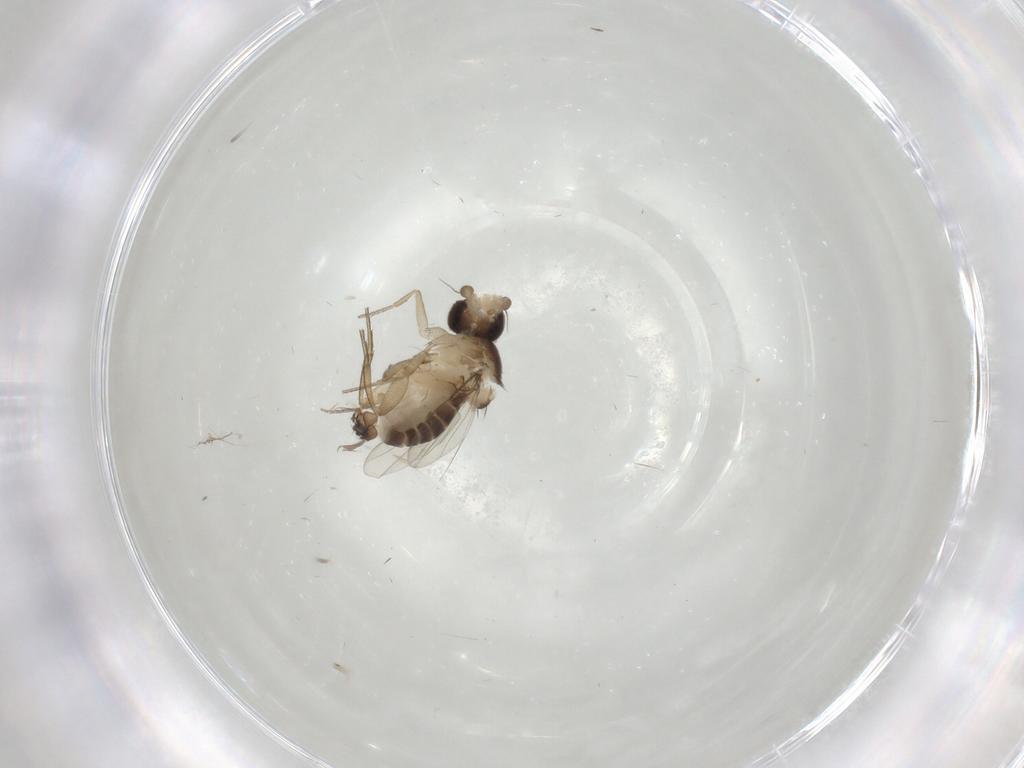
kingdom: Animalia
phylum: Arthropoda
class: Insecta
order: Diptera
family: Phoridae
